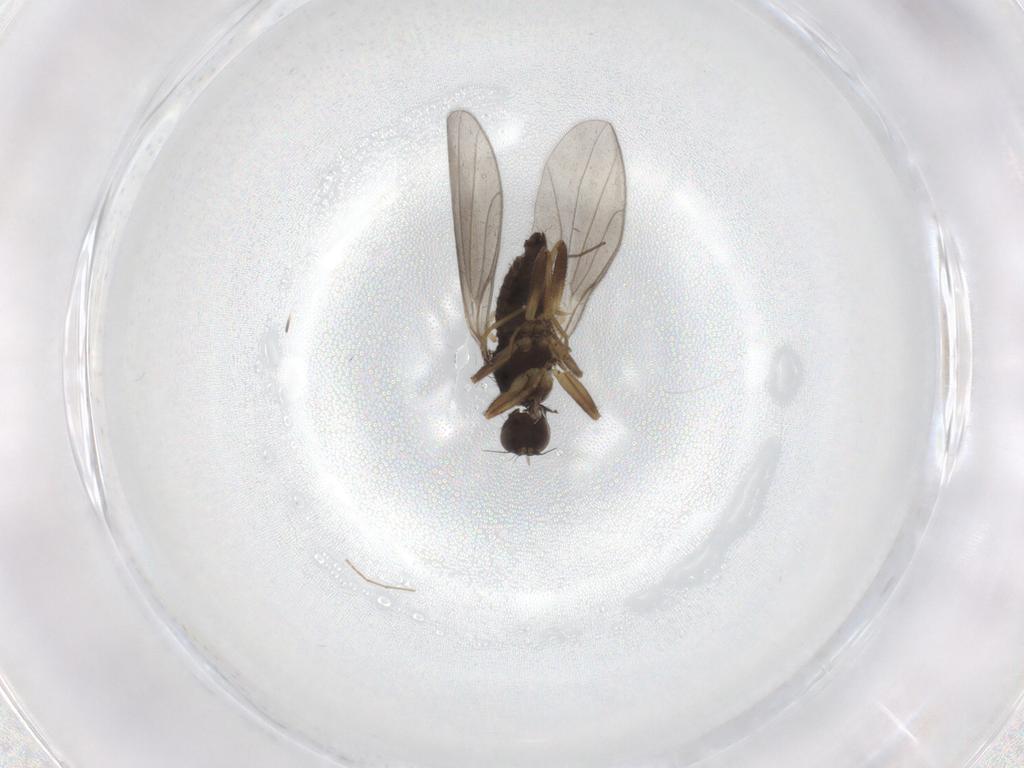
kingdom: Animalia
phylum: Arthropoda
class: Insecta
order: Diptera
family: Hybotidae
